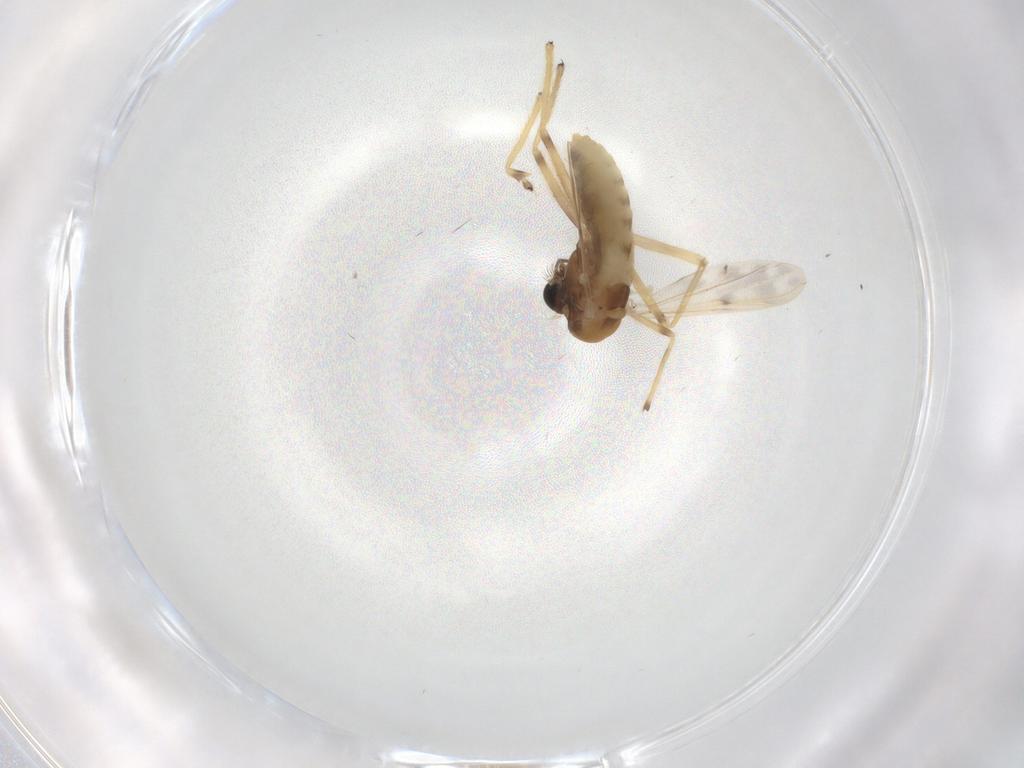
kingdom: Animalia
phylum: Arthropoda
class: Insecta
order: Diptera
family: Chironomidae
